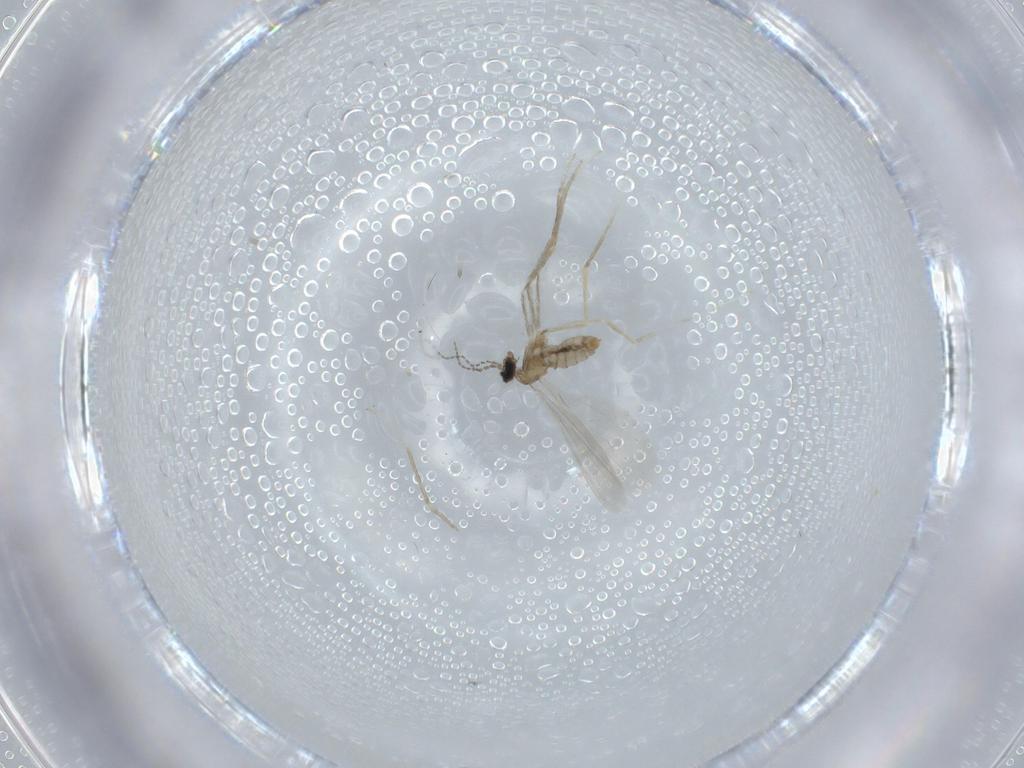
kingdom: Animalia
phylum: Arthropoda
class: Insecta
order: Diptera
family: Cecidomyiidae
